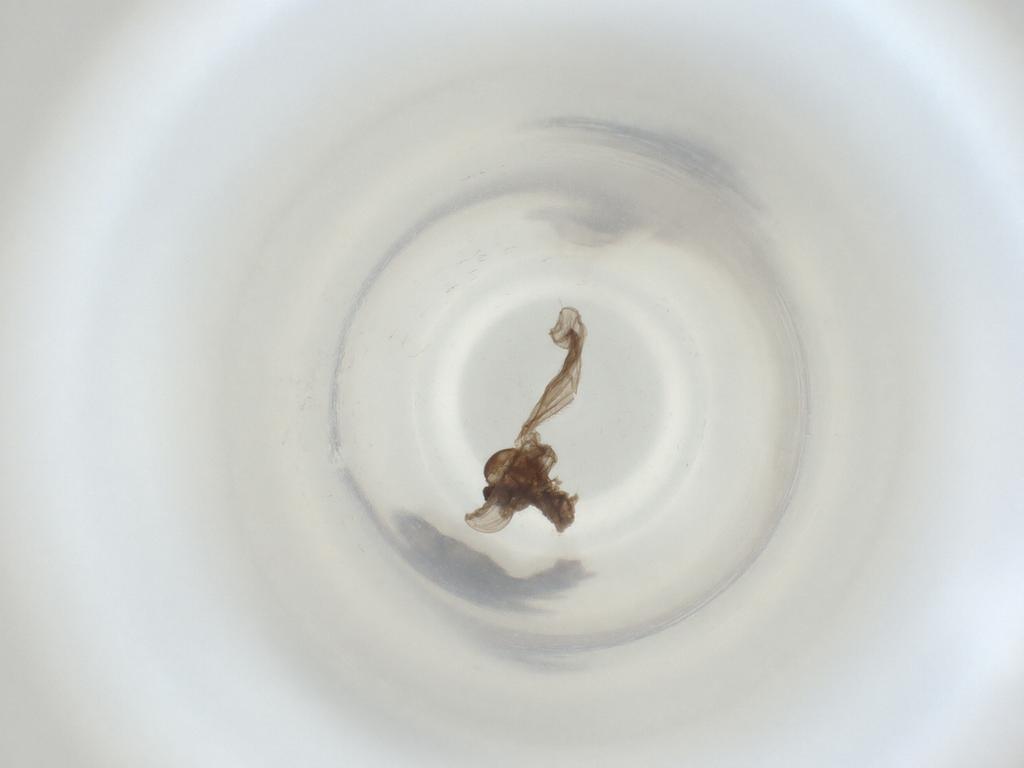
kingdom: Animalia
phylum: Arthropoda
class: Insecta
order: Diptera
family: Cecidomyiidae
